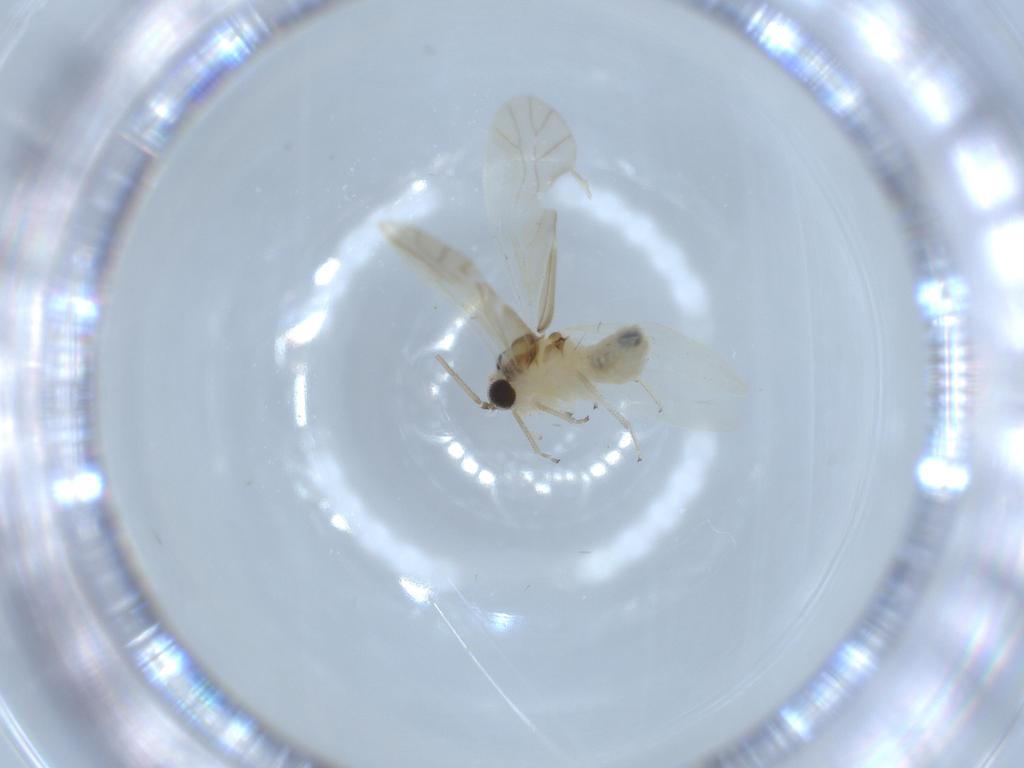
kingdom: Animalia
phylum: Arthropoda
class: Insecta
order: Psocodea
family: Caeciliusidae
